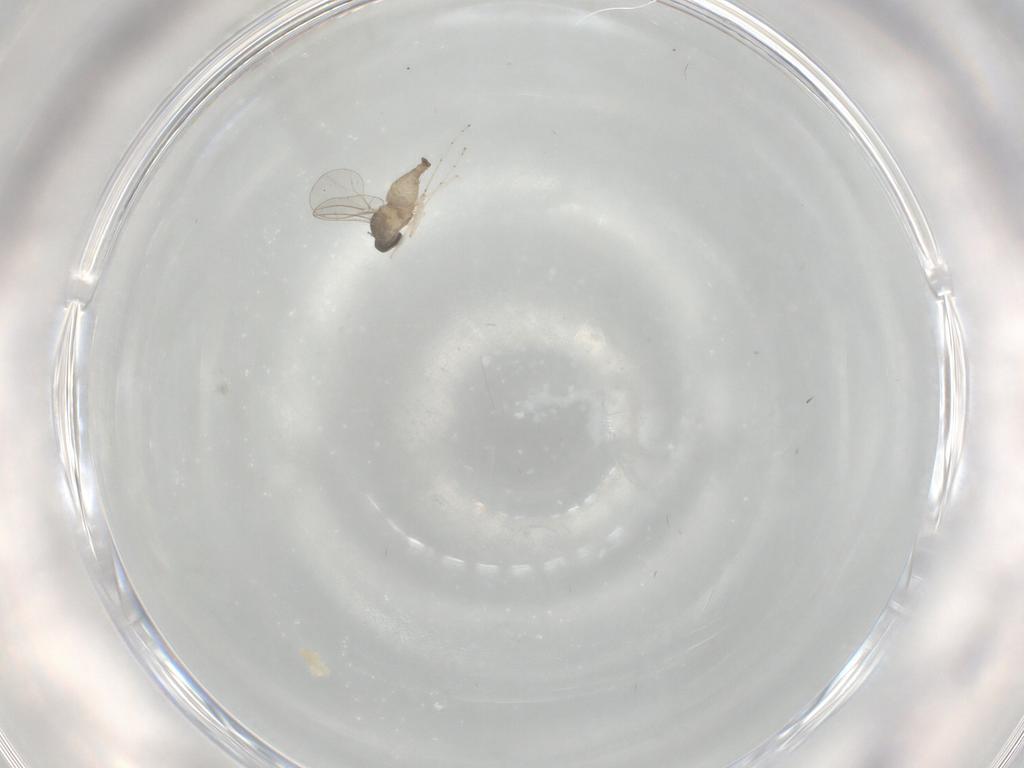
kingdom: Animalia
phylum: Arthropoda
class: Insecta
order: Diptera
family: Cecidomyiidae
